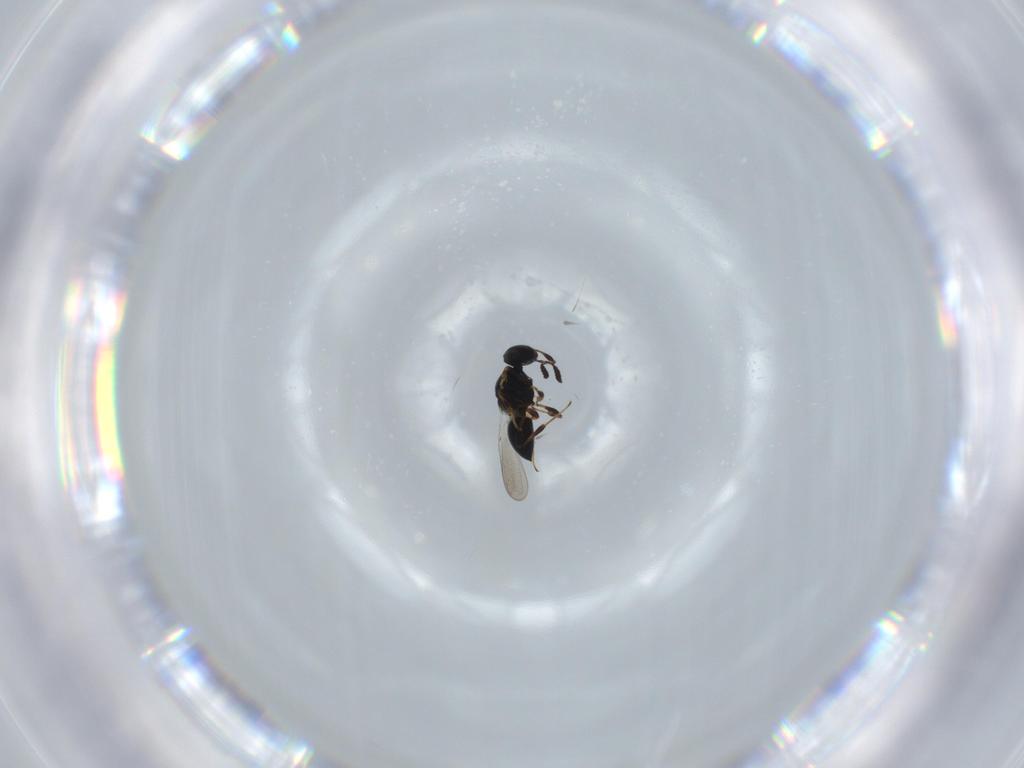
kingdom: Animalia
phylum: Arthropoda
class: Insecta
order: Hymenoptera
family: Platygastridae
